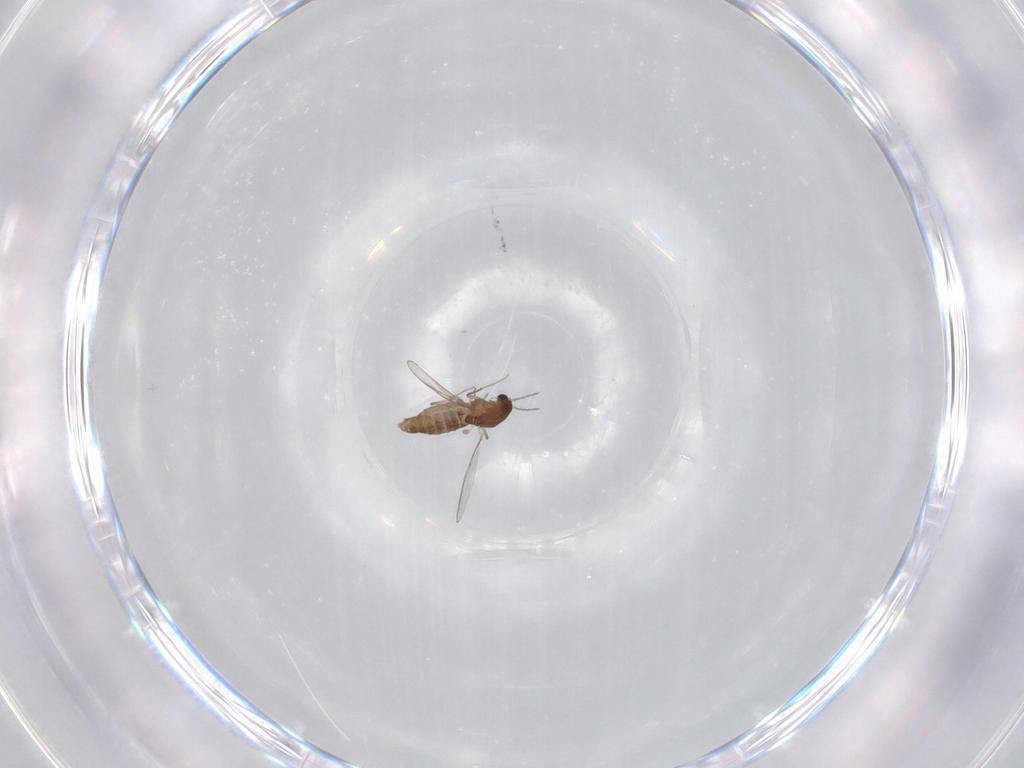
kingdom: Animalia
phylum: Arthropoda
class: Insecta
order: Diptera
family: Chironomidae
